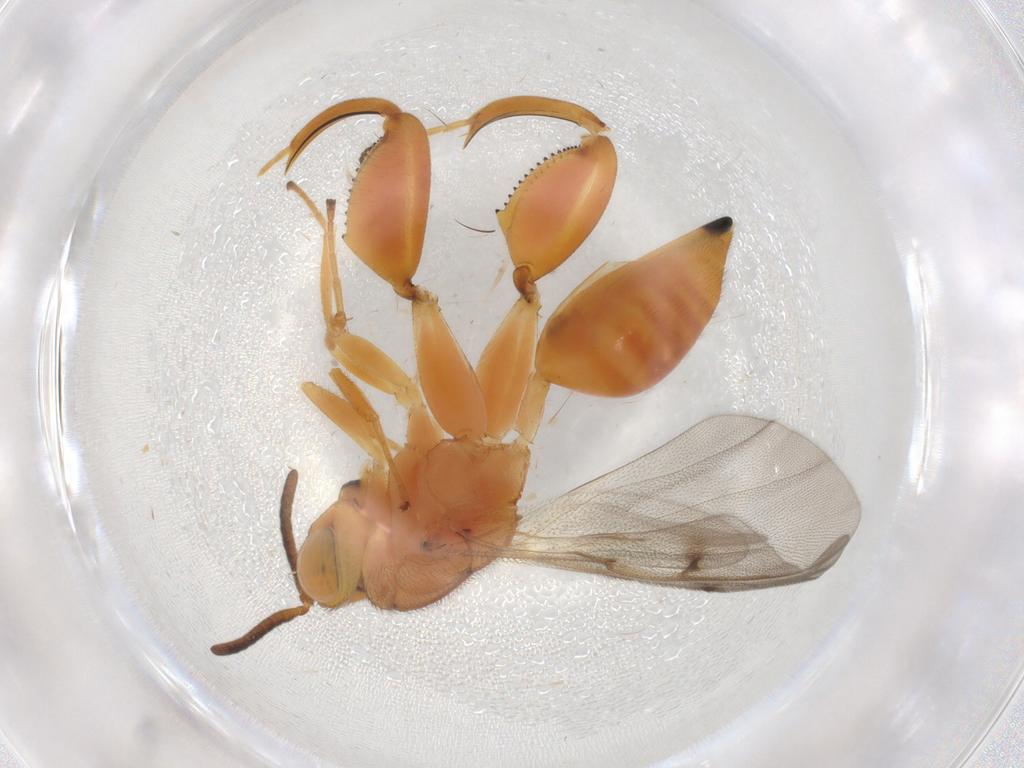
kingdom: Animalia
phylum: Arthropoda
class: Insecta
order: Hymenoptera
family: Chalcididae
